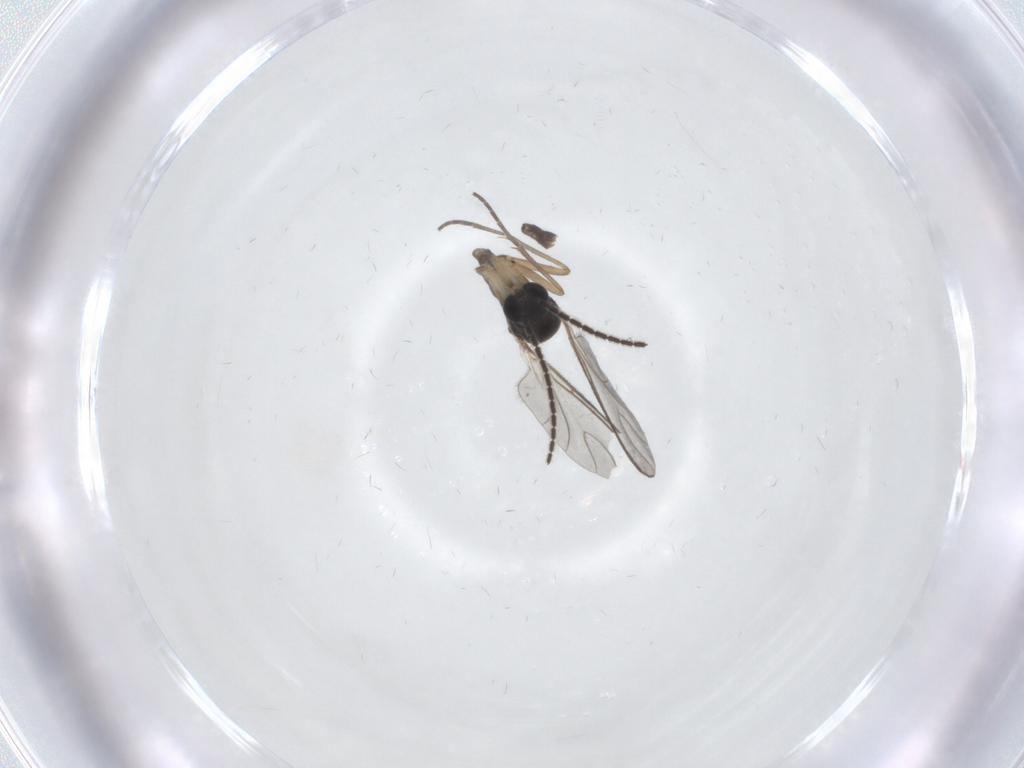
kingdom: Animalia
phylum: Arthropoda
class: Insecta
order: Diptera
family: Sciaridae
